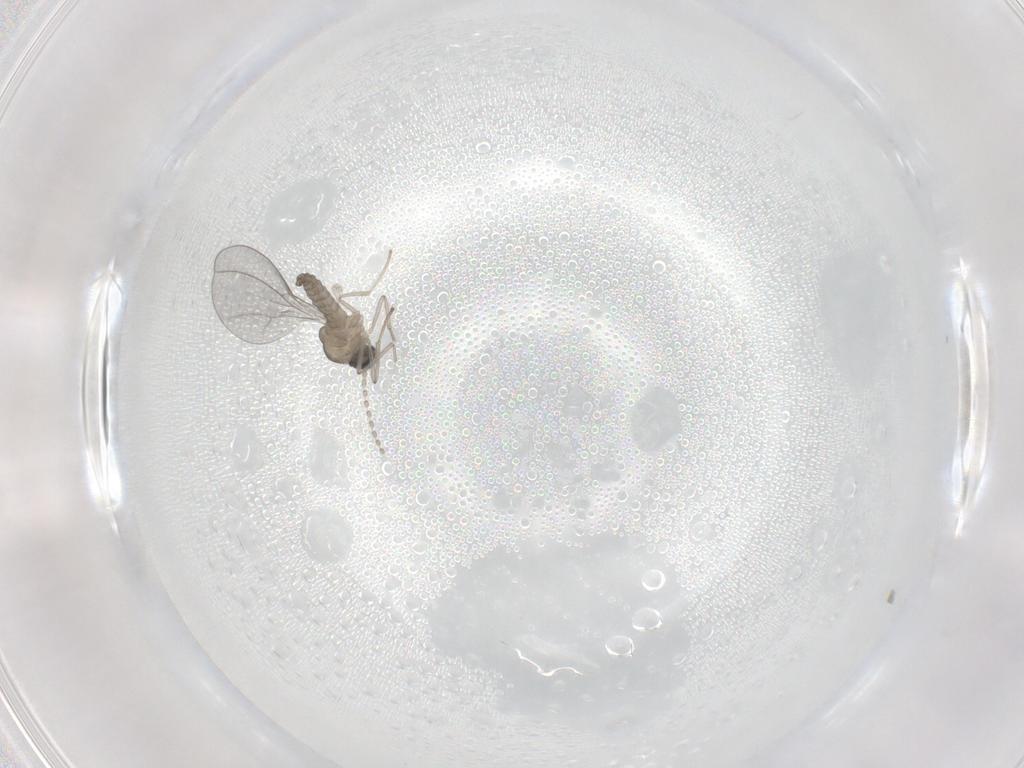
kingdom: Animalia
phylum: Arthropoda
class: Insecta
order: Diptera
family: Cecidomyiidae
